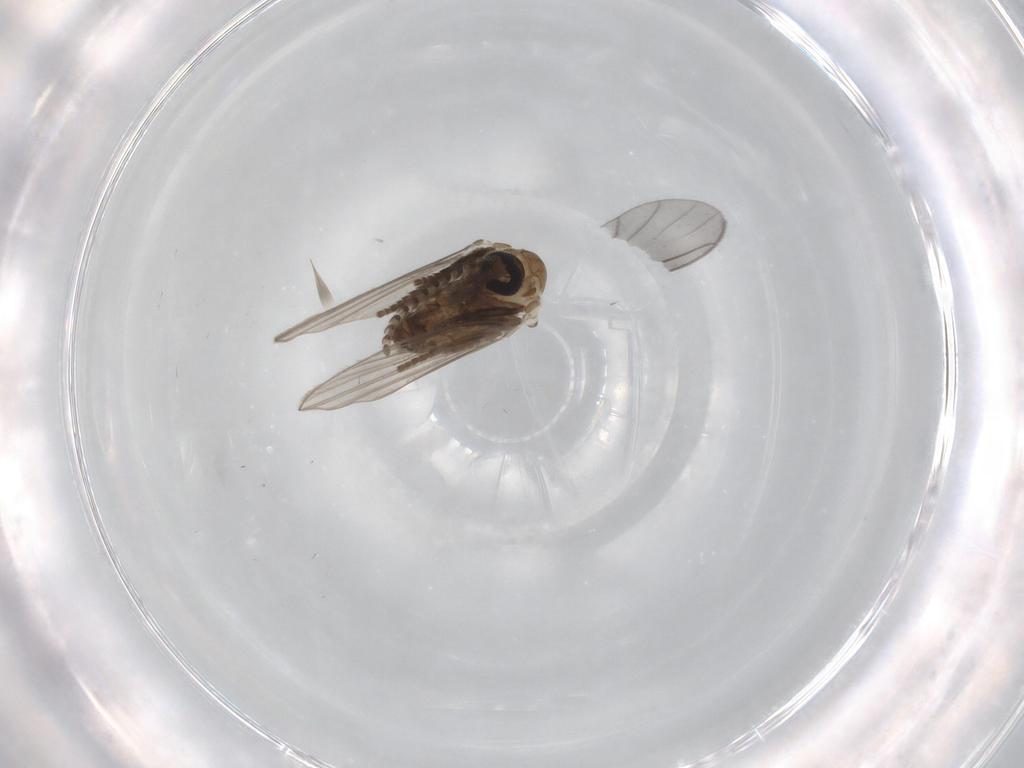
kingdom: Animalia
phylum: Arthropoda
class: Insecta
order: Diptera
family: Psychodidae
